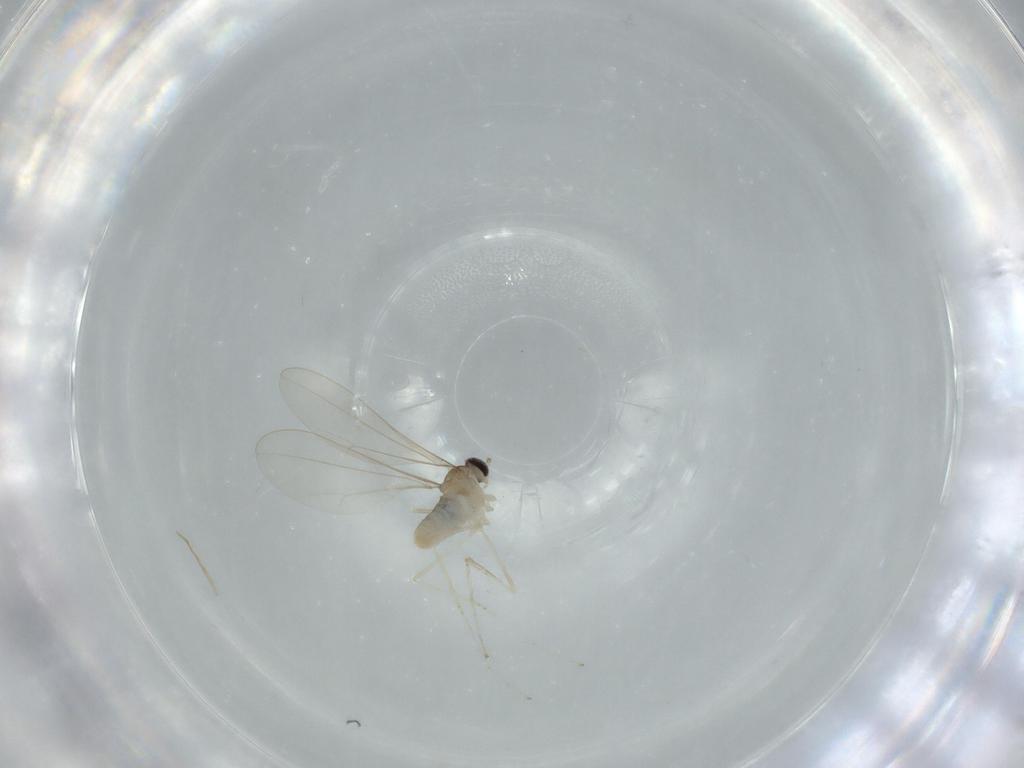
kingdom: Animalia
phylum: Arthropoda
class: Insecta
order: Diptera
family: Cecidomyiidae
